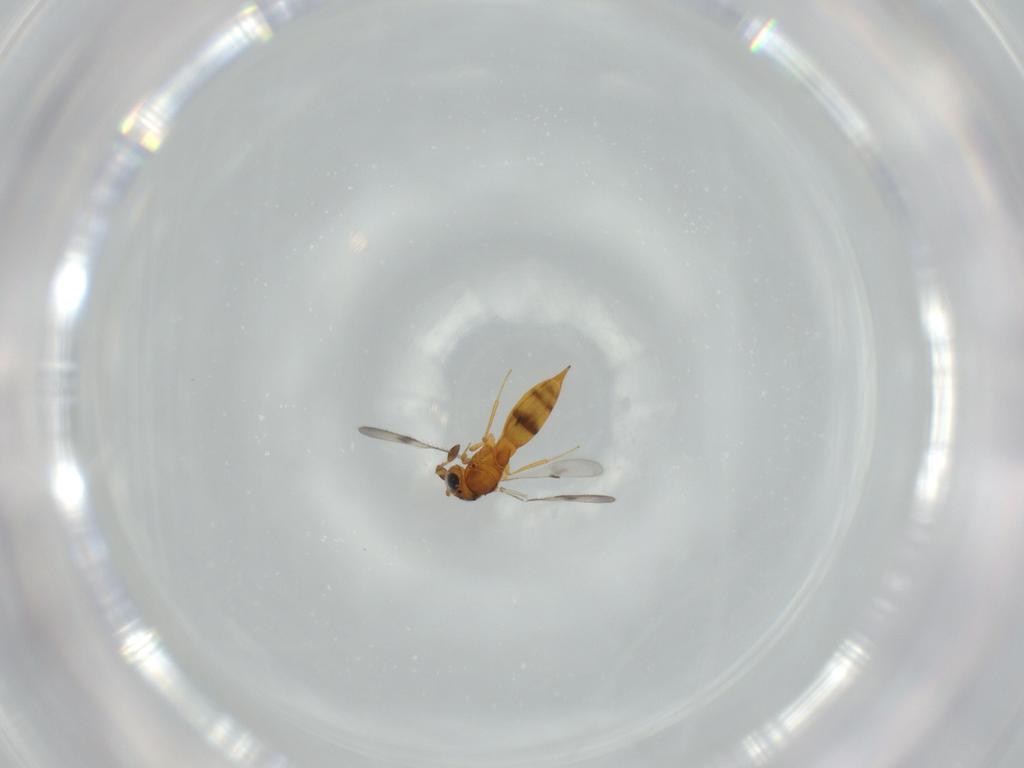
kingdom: Animalia
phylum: Arthropoda
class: Insecta
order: Hymenoptera
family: Scelionidae
